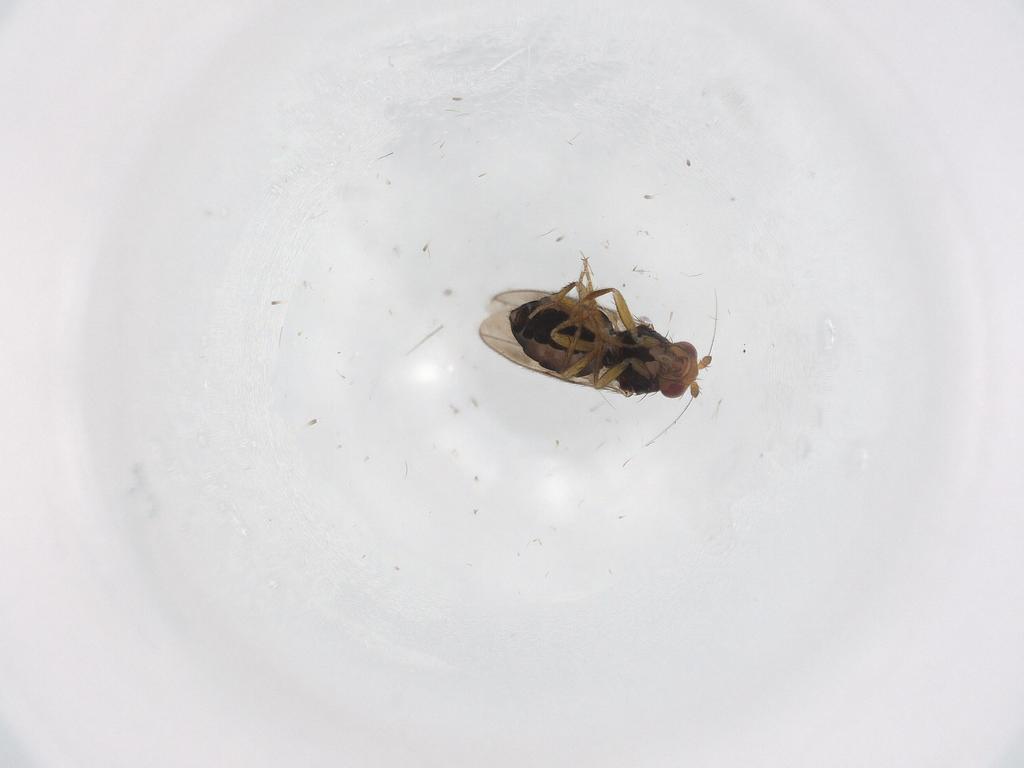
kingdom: Animalia
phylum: Arthropoda
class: Insecta
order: Diptera
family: Sphaeroceridae
